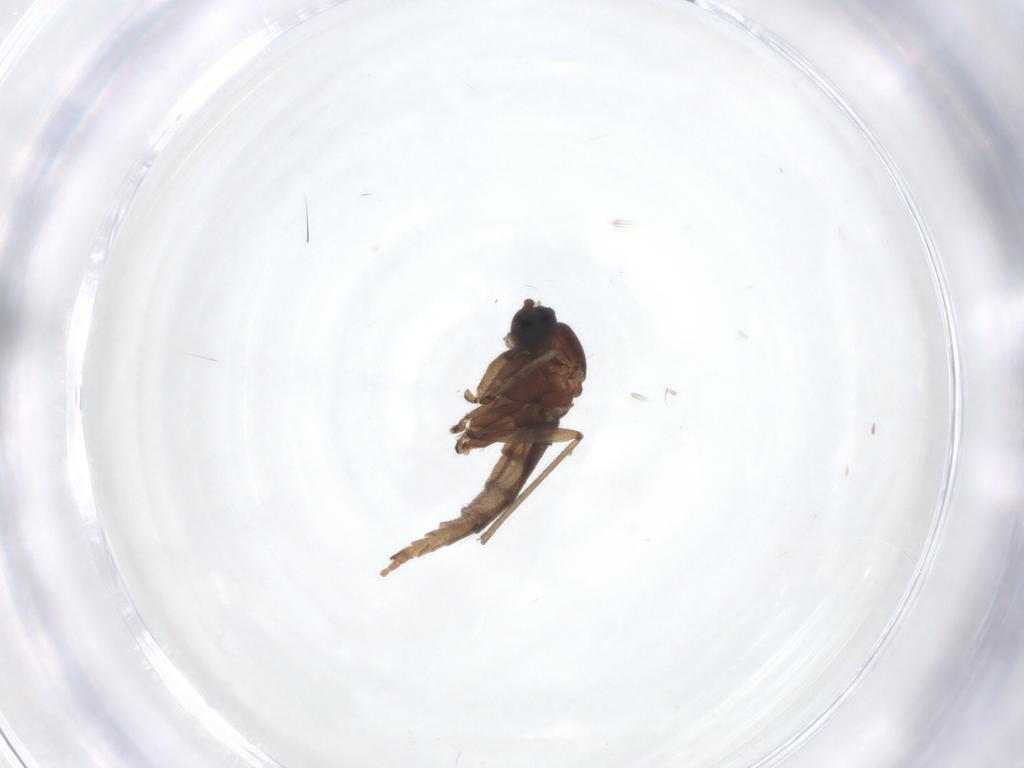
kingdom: Animalia
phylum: Arthropoda
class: Insecta
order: Diptera
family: Sciaridae
